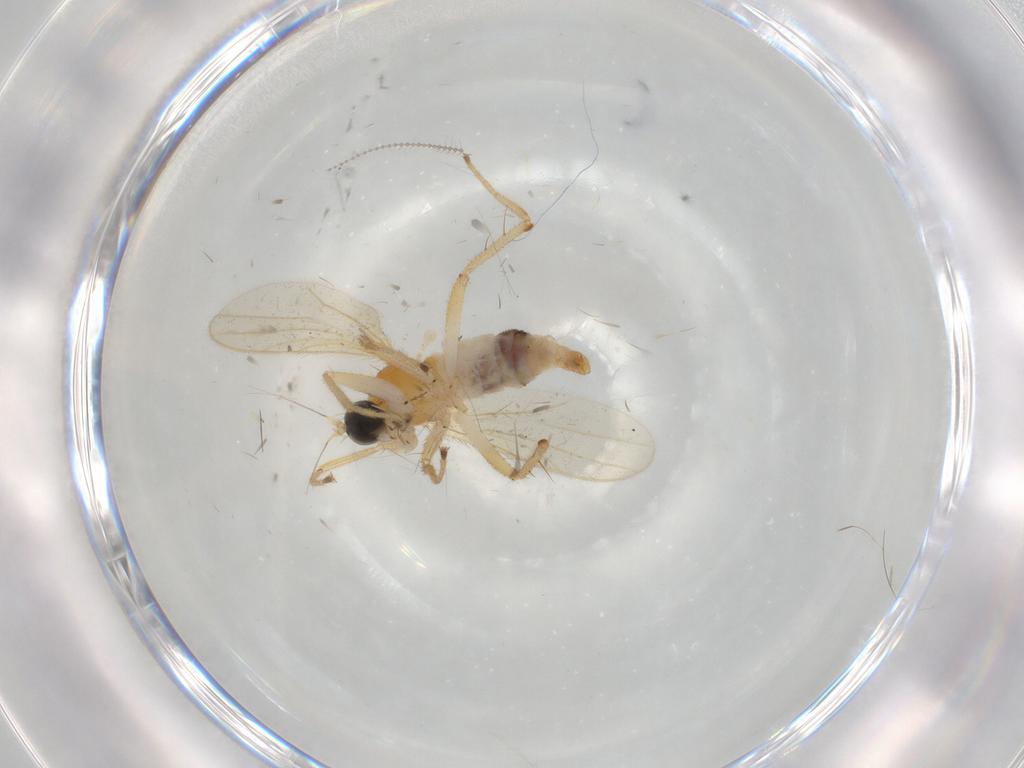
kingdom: Animalia
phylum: Arthropoda
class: Insecta
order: Diptera
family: Hybotidae
